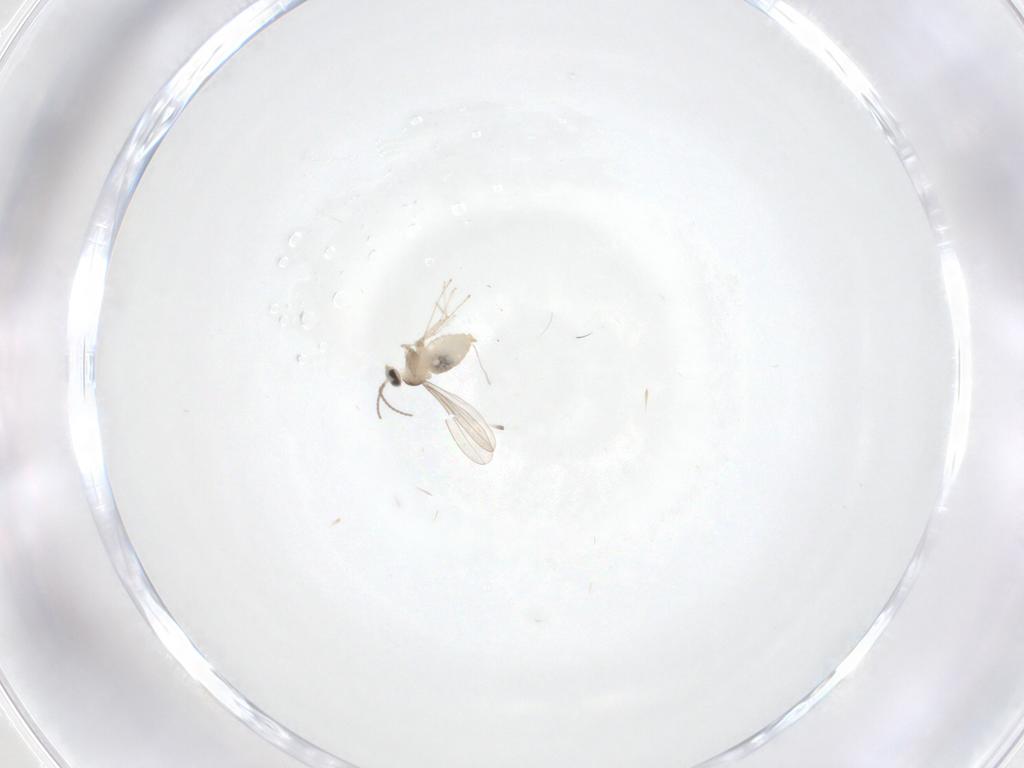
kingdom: Animalia
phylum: Arthropoda
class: Insecta
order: Diptera
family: Cecidomyiidae
